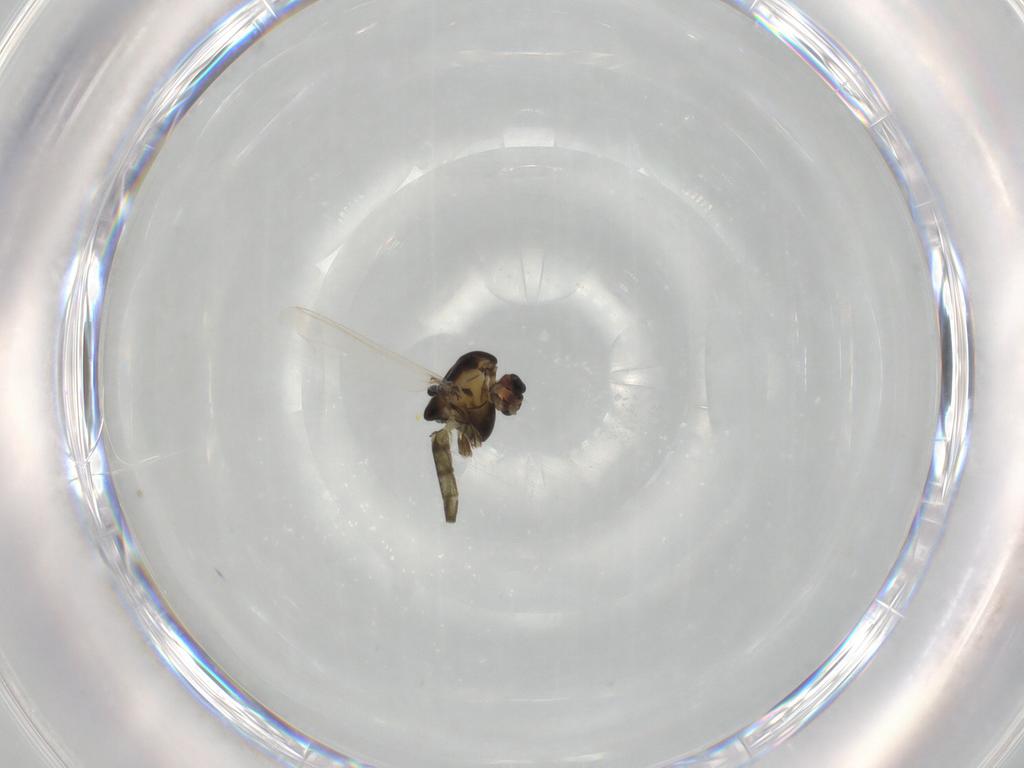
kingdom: Animalia
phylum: Arthropoda
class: Insecta
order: Diptera
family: Chironomidae
